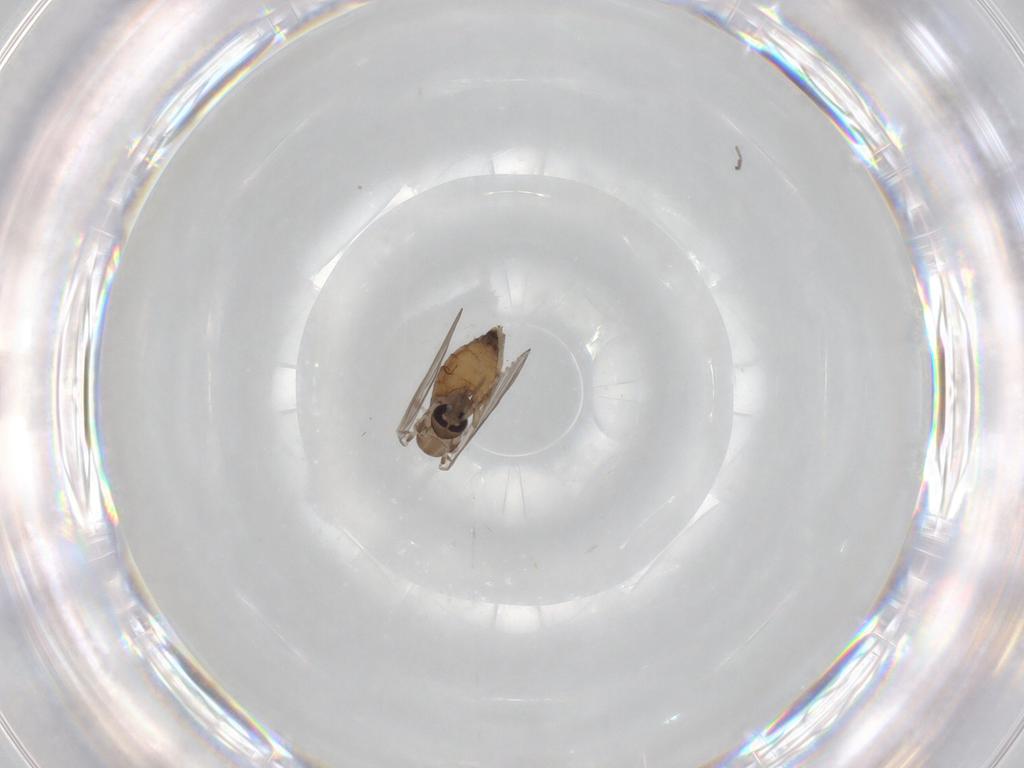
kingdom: Animalia
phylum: Arthropoda
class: Insecta
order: Diptera
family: Psychodidae
